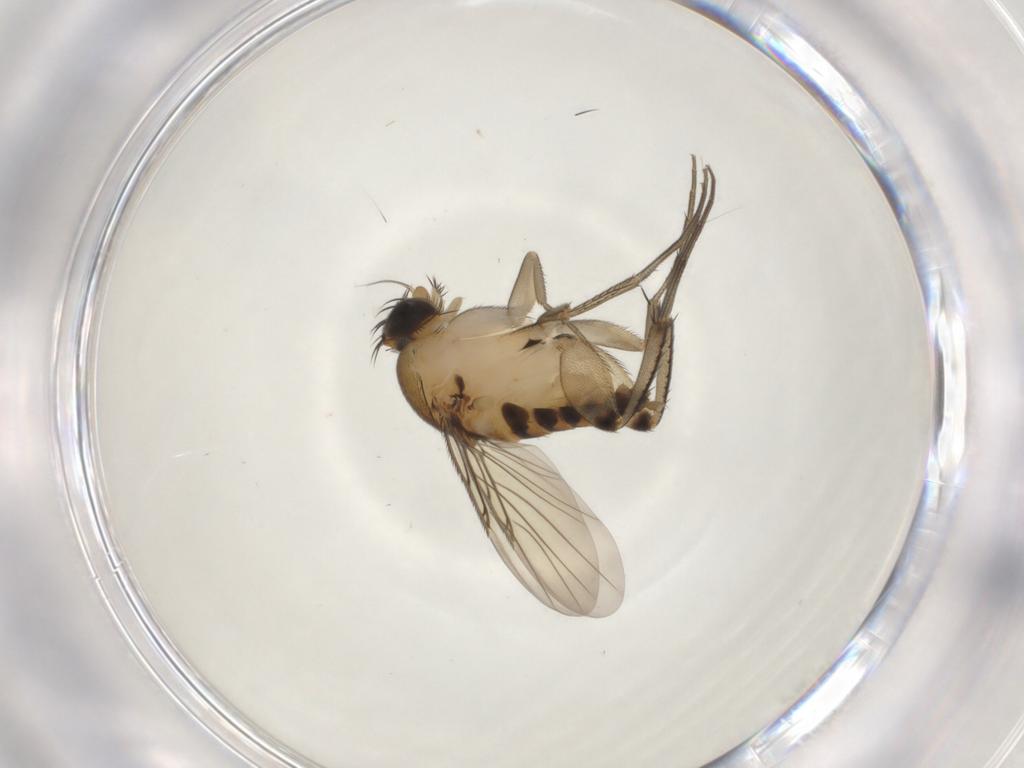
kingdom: Animalia
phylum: Arthropoda
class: Insecta
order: Diptera
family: Phoridae
